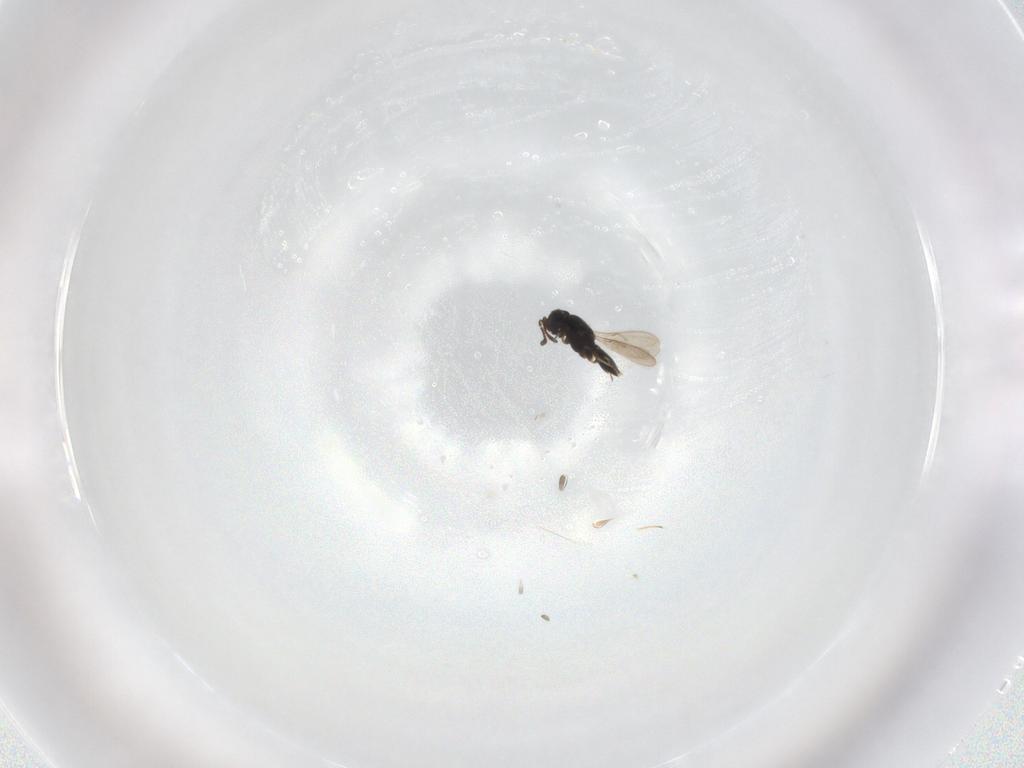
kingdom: Animalia
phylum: Arthropoda
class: Insecta
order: Hymenoptera
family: Scelionidae
